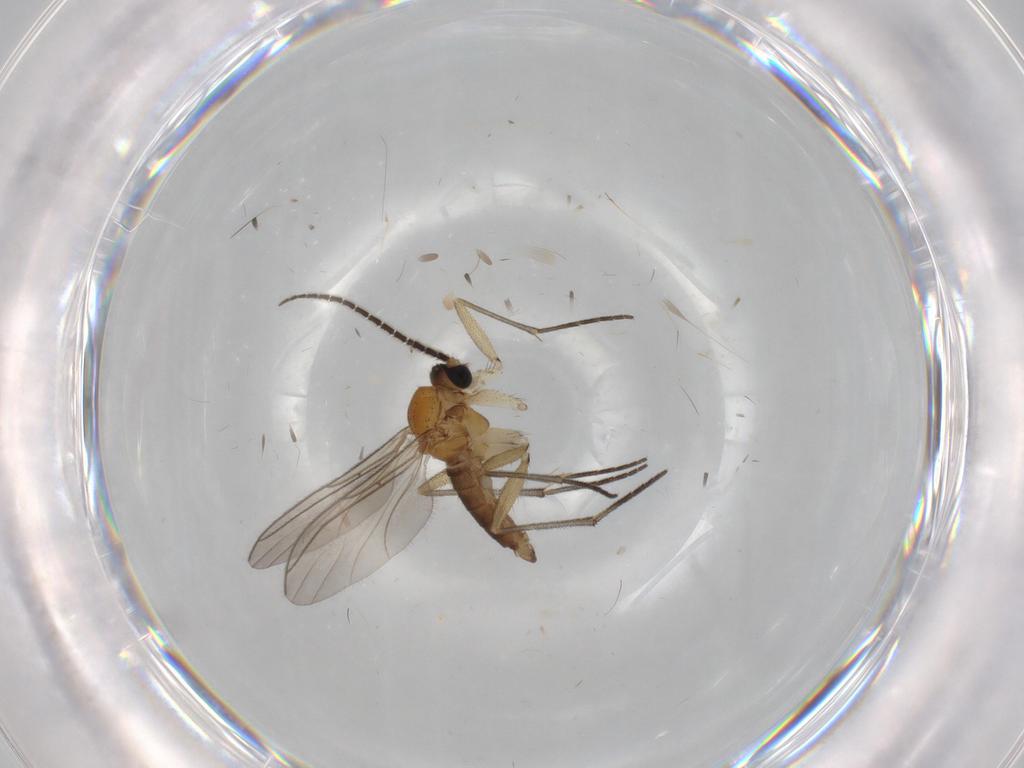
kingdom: Animalia
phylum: Arthropoda
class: Insecta
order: Diptera
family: Sciaridae
